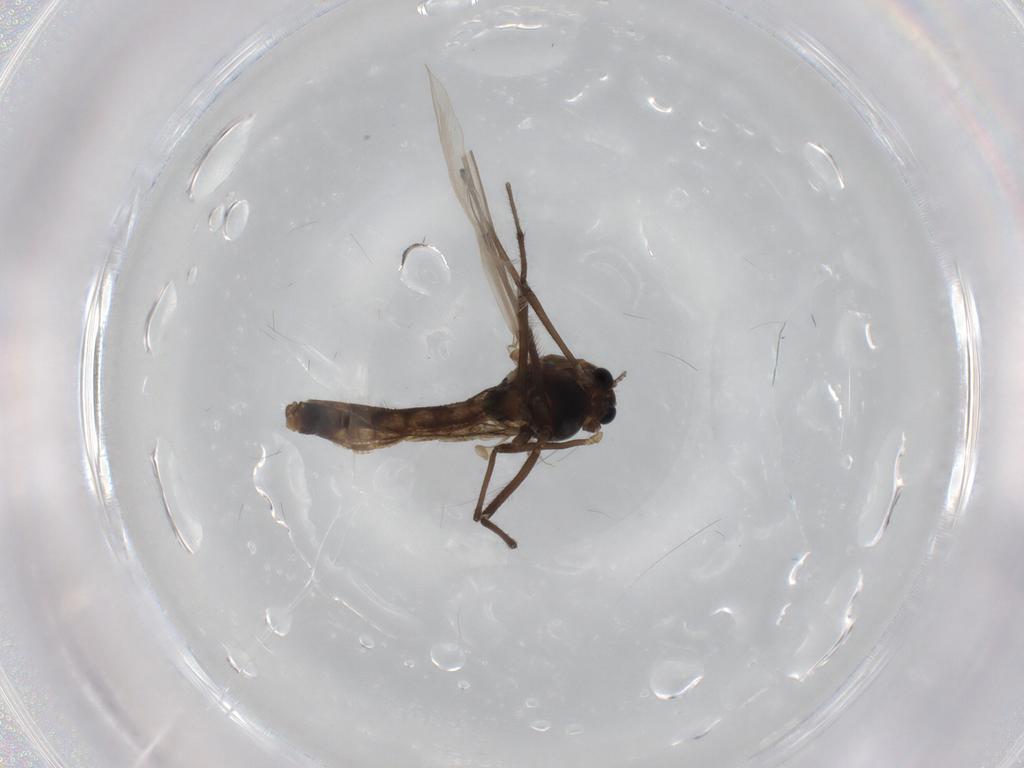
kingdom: Animalia
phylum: Arthropoda
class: Insecta
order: Diptera
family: Chironomidae
